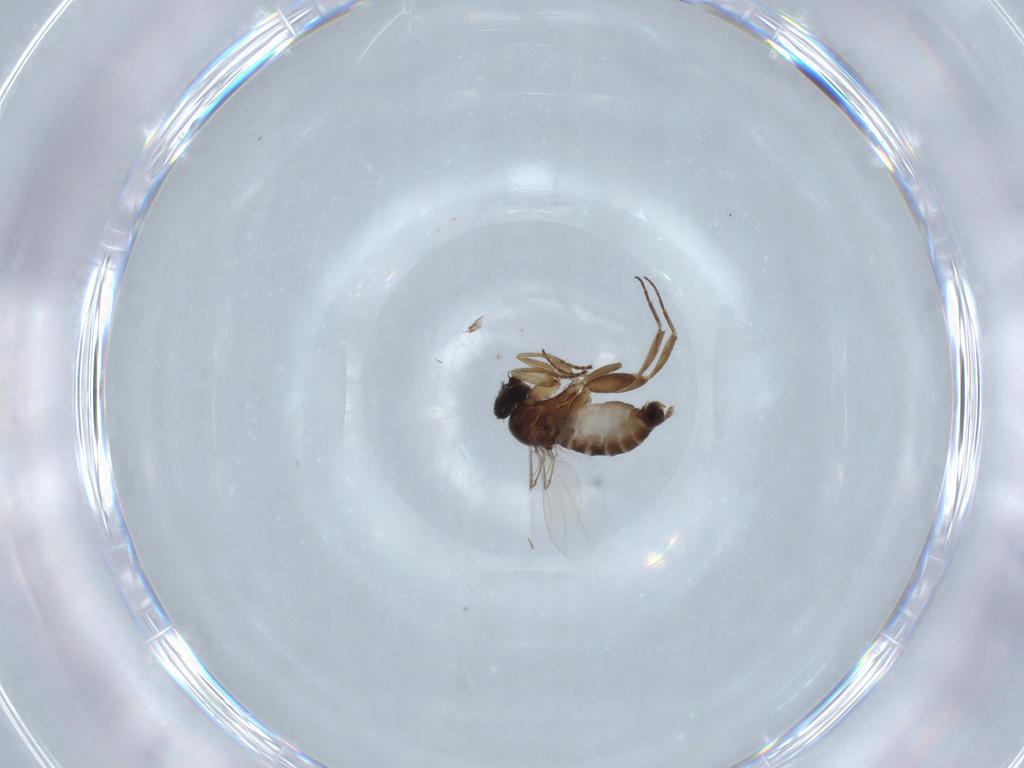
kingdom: Animalia
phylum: Arthropoda
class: Insecta
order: Diptera
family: Phoridae
